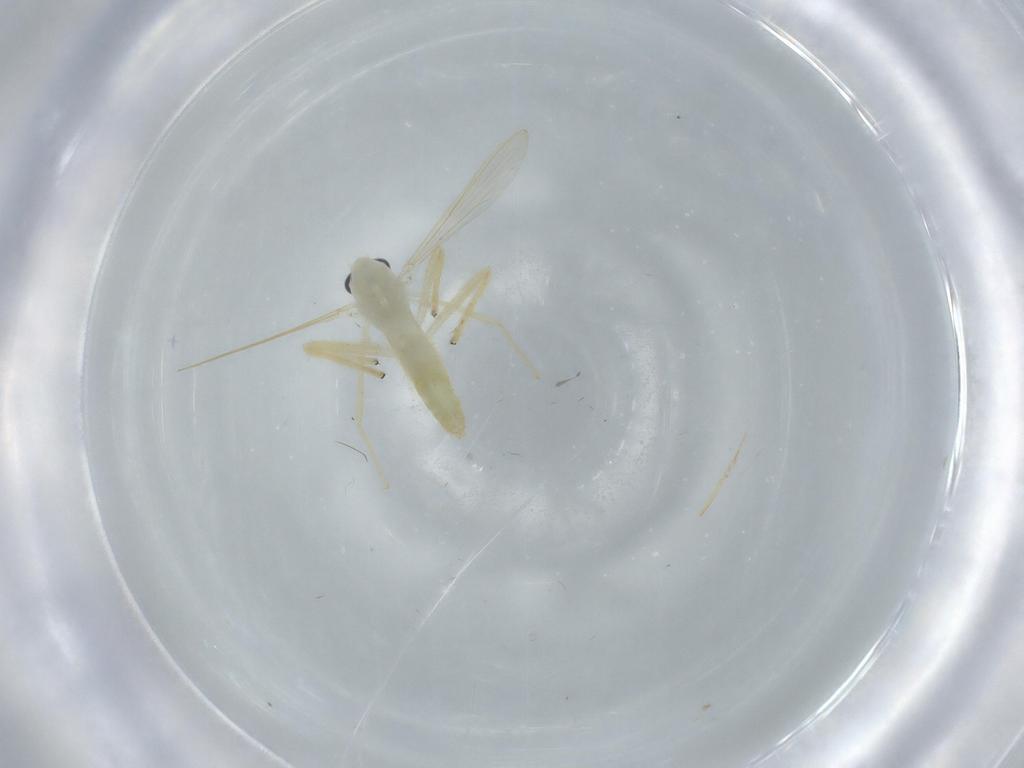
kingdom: Animalia
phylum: Arthropoda
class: Insecta
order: Diptera
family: Chironomidae
